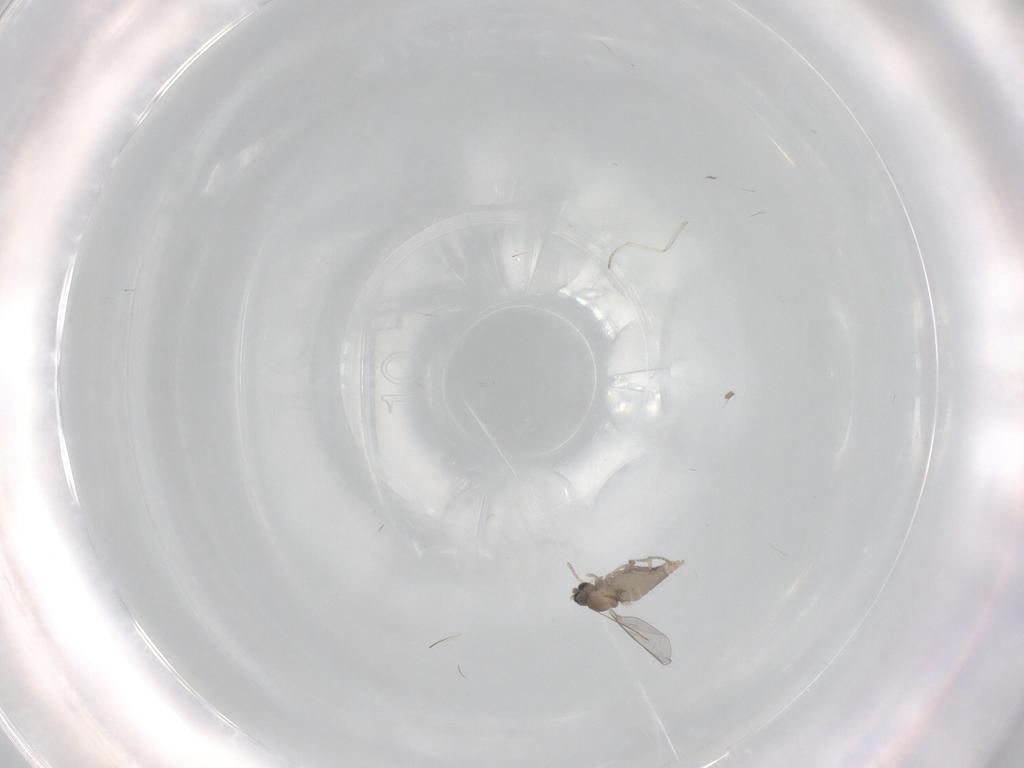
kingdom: Animalia
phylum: Arthropoda
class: Insecta
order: Diptera
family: Cecidomyiidae
